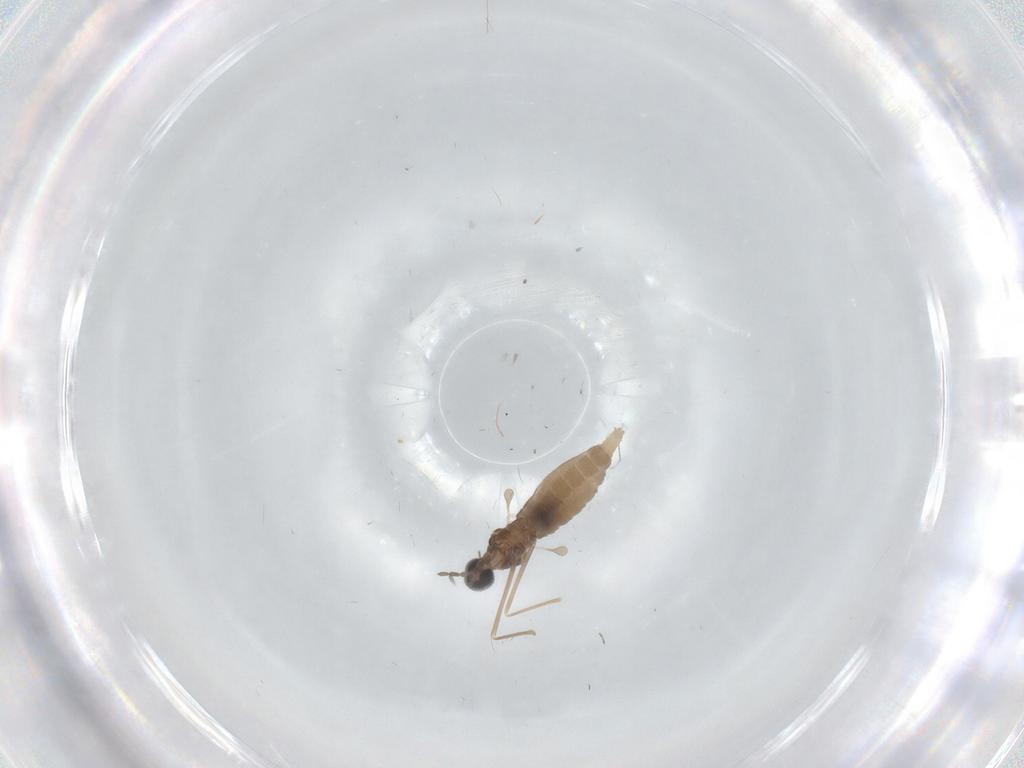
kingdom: Animalia
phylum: Arthropoda
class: Insecta
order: Diptera
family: Cecidomyiidae
